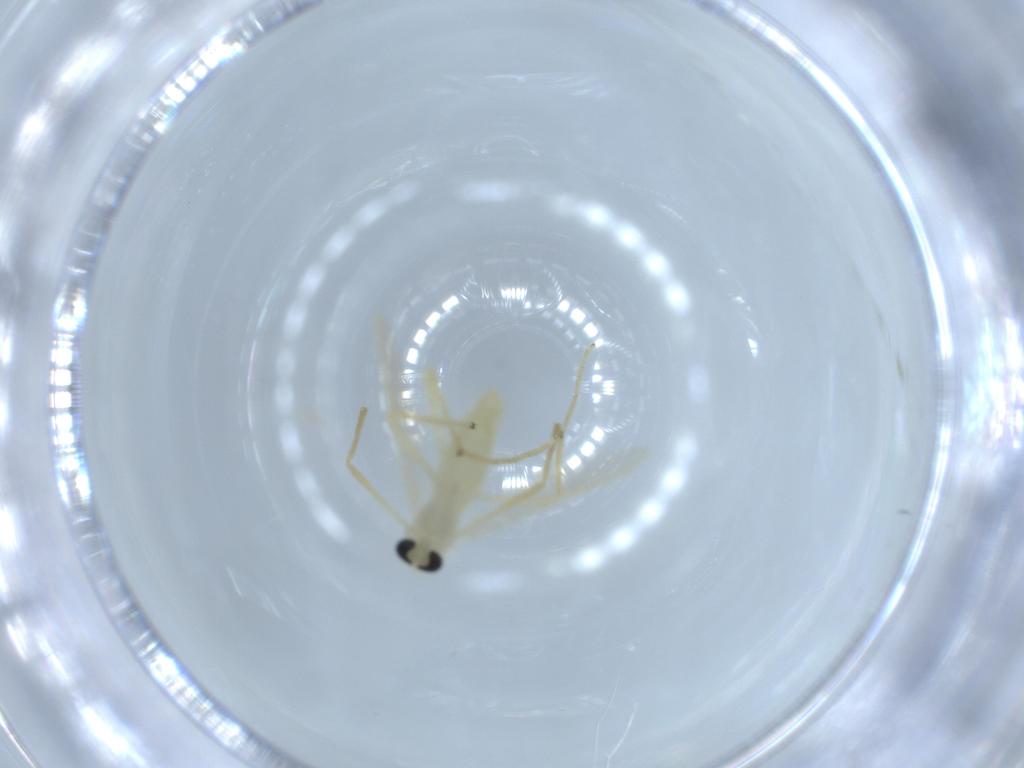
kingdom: Animalia
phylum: Arthropoda
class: Insecta
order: Diptera
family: Chironomidae
